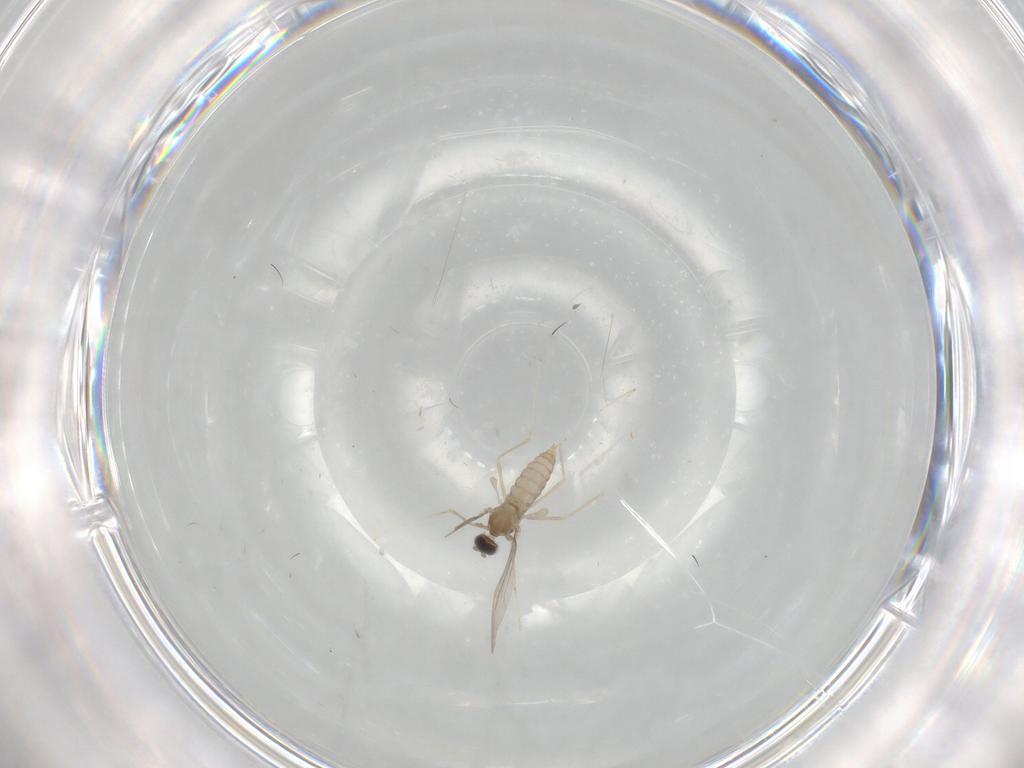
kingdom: Animalia
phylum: Arthropoda
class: Insecta
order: Diptera
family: Cecidomyiidae
